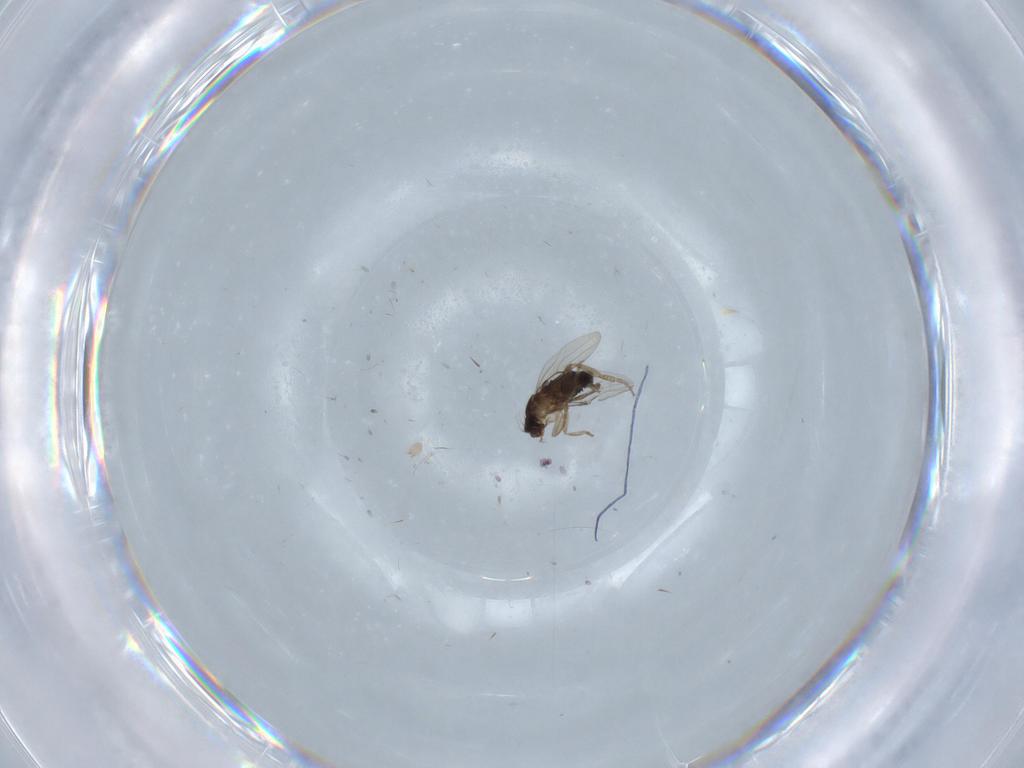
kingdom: Animalia
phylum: Arthropoda
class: Insecta
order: Diptera
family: Ceratopogonidae
